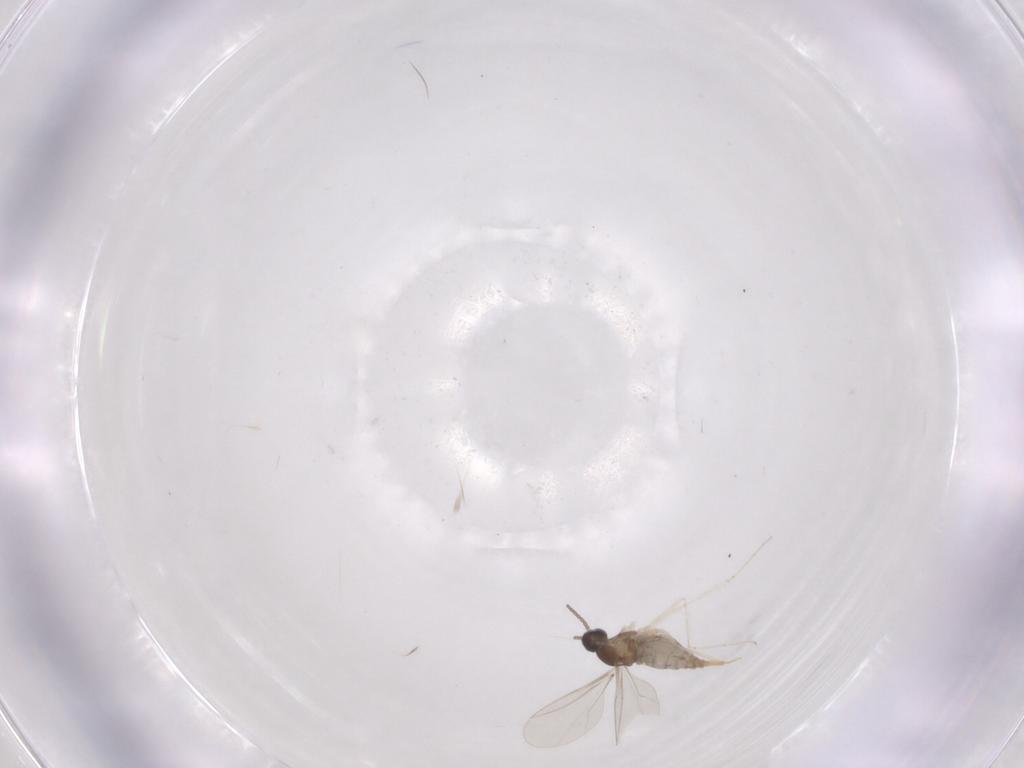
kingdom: Animalia
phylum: Arthropoda
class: Insecta
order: Diptera
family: Cecidomyiidae
